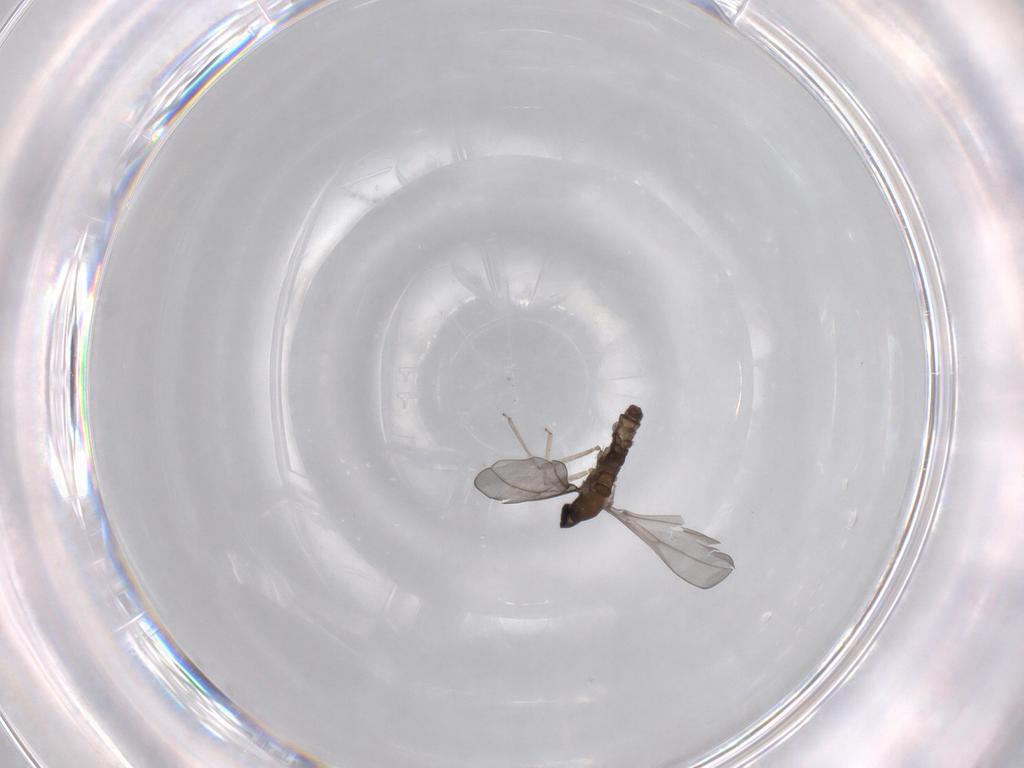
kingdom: Animalia
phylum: Arthropoda
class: Insecta
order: Diptera
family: Cecidomyiidae
